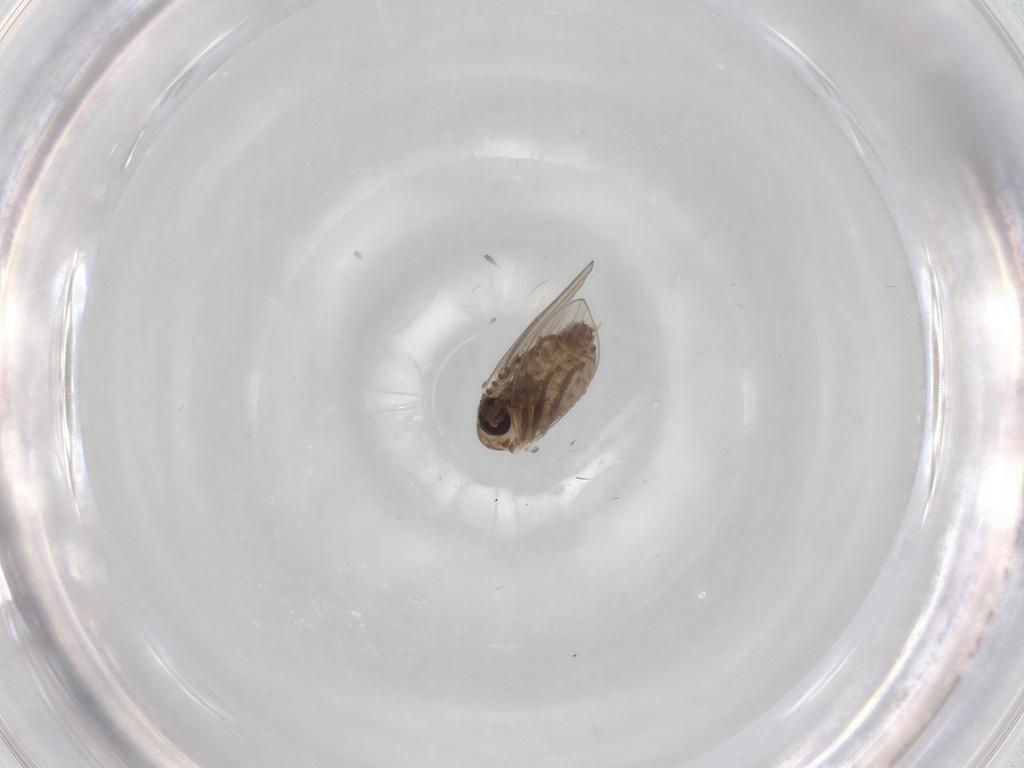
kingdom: Animalia
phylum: Arthropoda
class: Insecta
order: Diptera
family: Psychodidae
